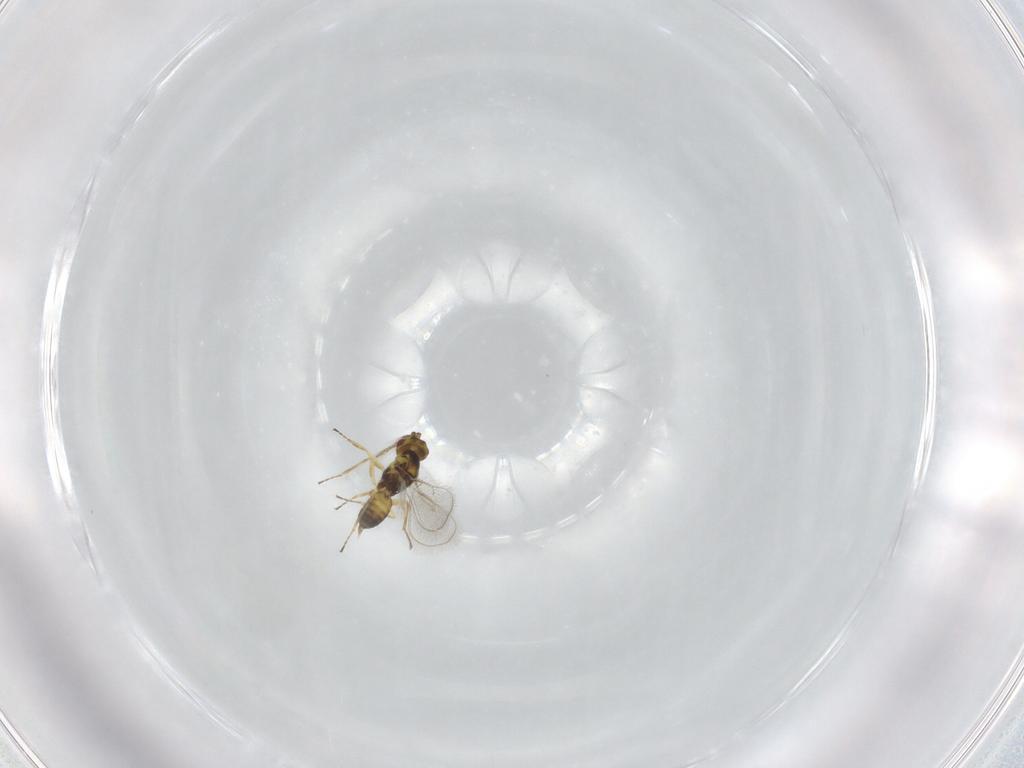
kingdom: Animalia
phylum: Arthropoda
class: Insecta
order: Hymenoptera
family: Eulophidae
